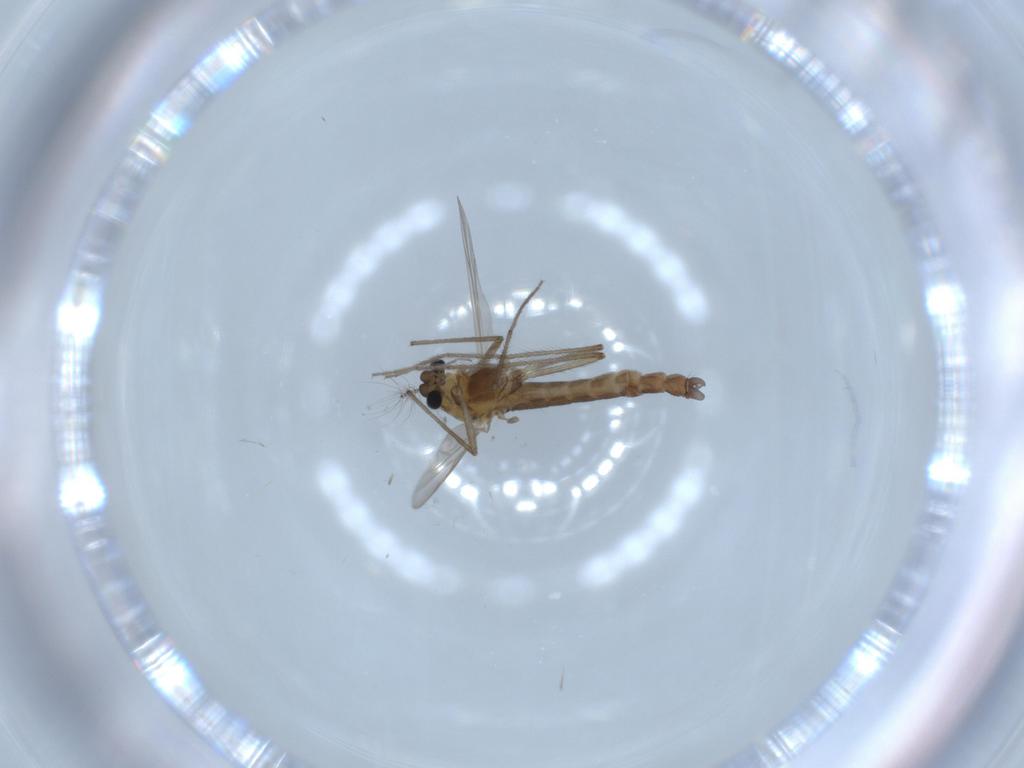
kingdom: Animalia
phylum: Arthropoda
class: Insecta
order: Diptera
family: Chironomidae
